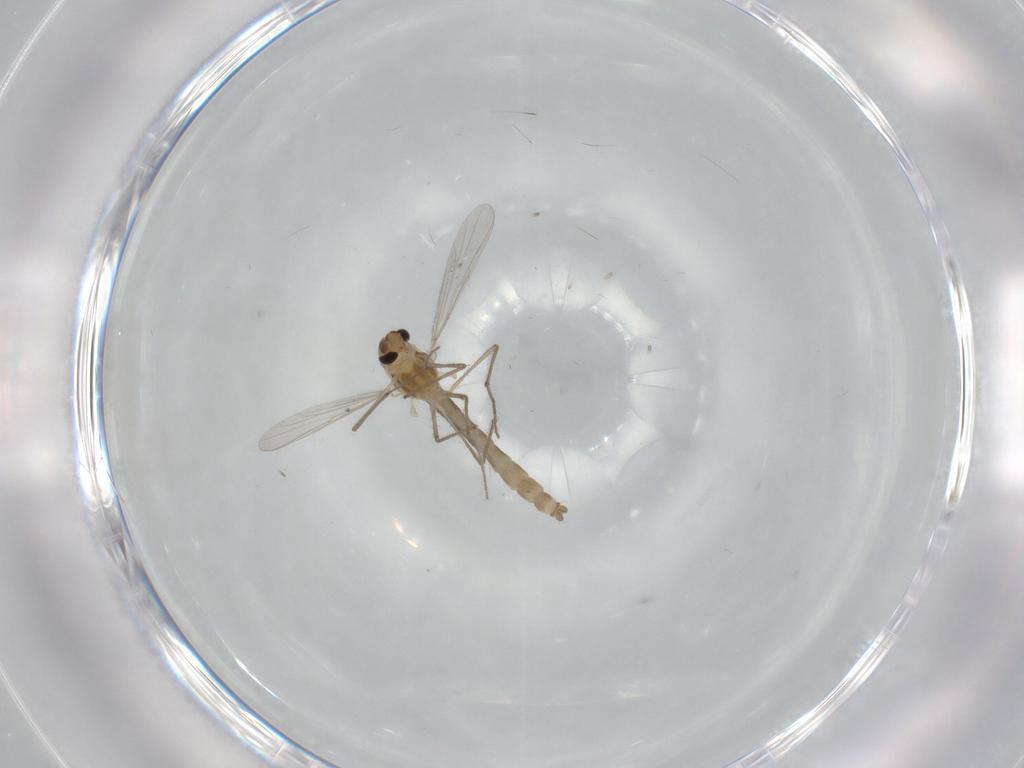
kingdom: Animalia
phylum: Arthropoda
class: Insecta
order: Diptera
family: Chironomidae
